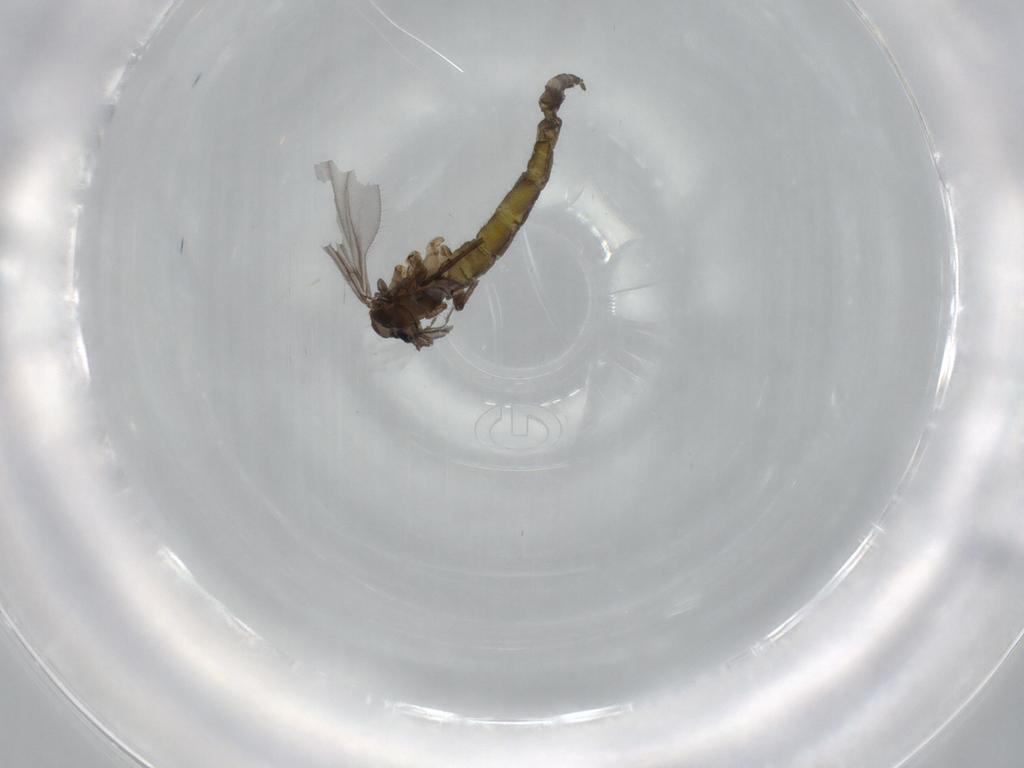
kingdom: Animalia
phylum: Arthropoda
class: Insecta
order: Diptera
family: Sciaridae
